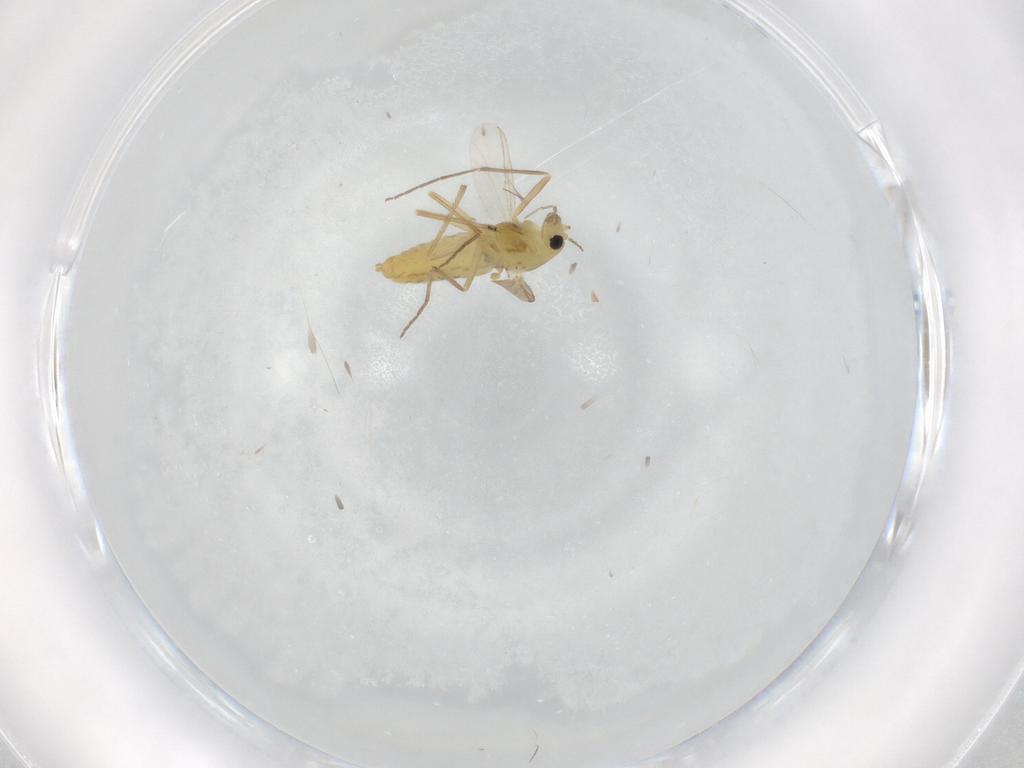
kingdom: Animalia
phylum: Arthropoda
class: Insecta
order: Diptera
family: Chironomidae
